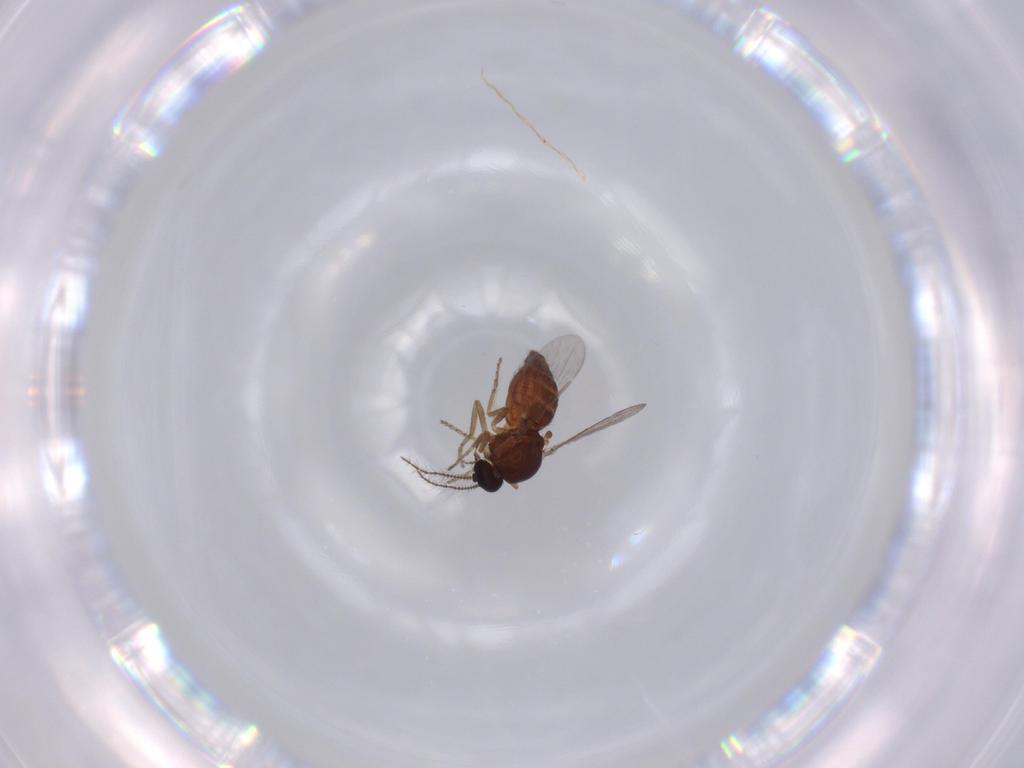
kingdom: Animalia
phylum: Arthropoda
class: Insecta
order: Diptera
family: Ceratopogonidae
